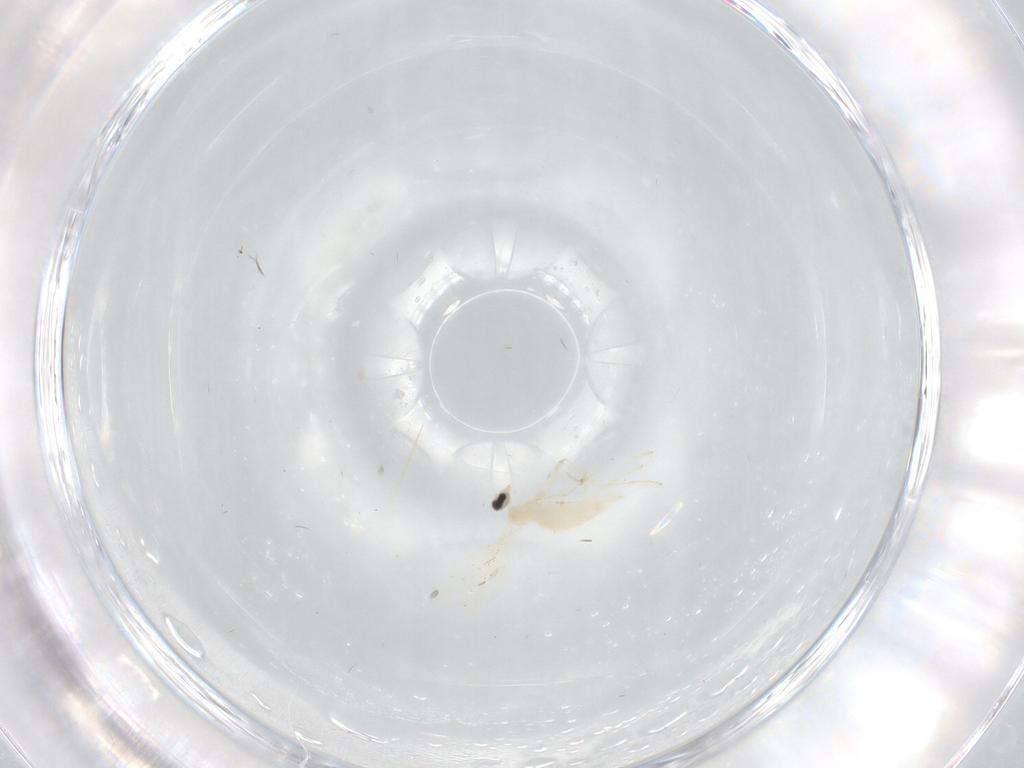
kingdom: Animalia
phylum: Arthropoda
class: Insecta
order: Diptera
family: Cecidomyiidae
